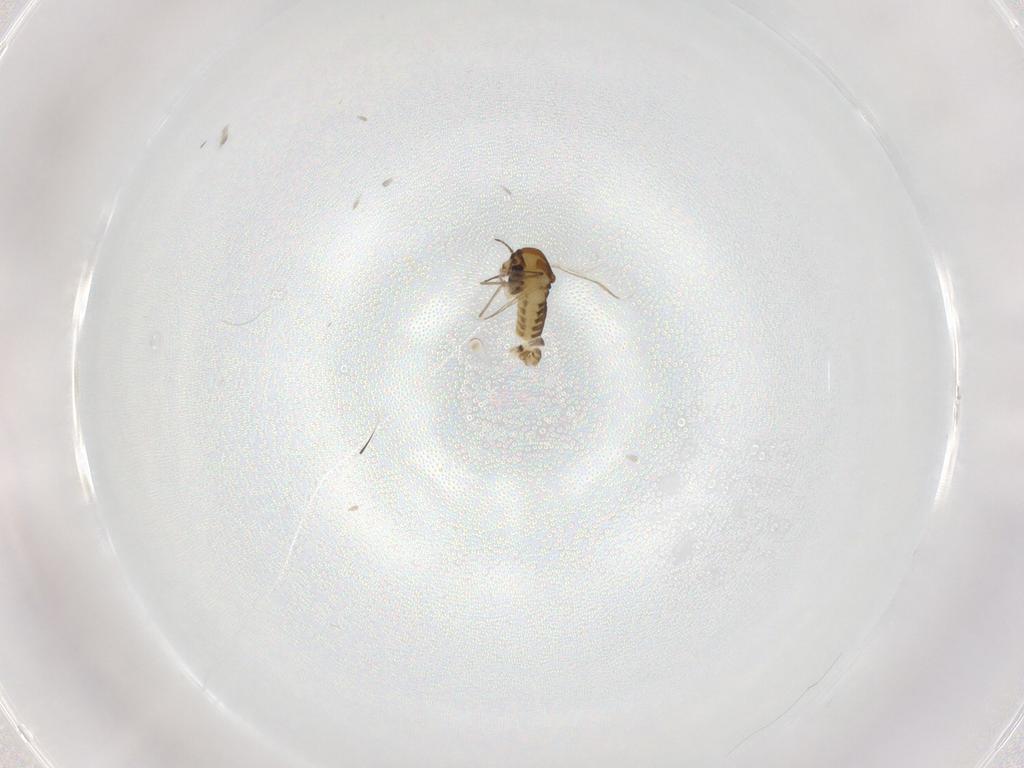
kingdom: Animalia
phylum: Arthropoda
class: Insecta
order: Diptera
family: Chironomidae
